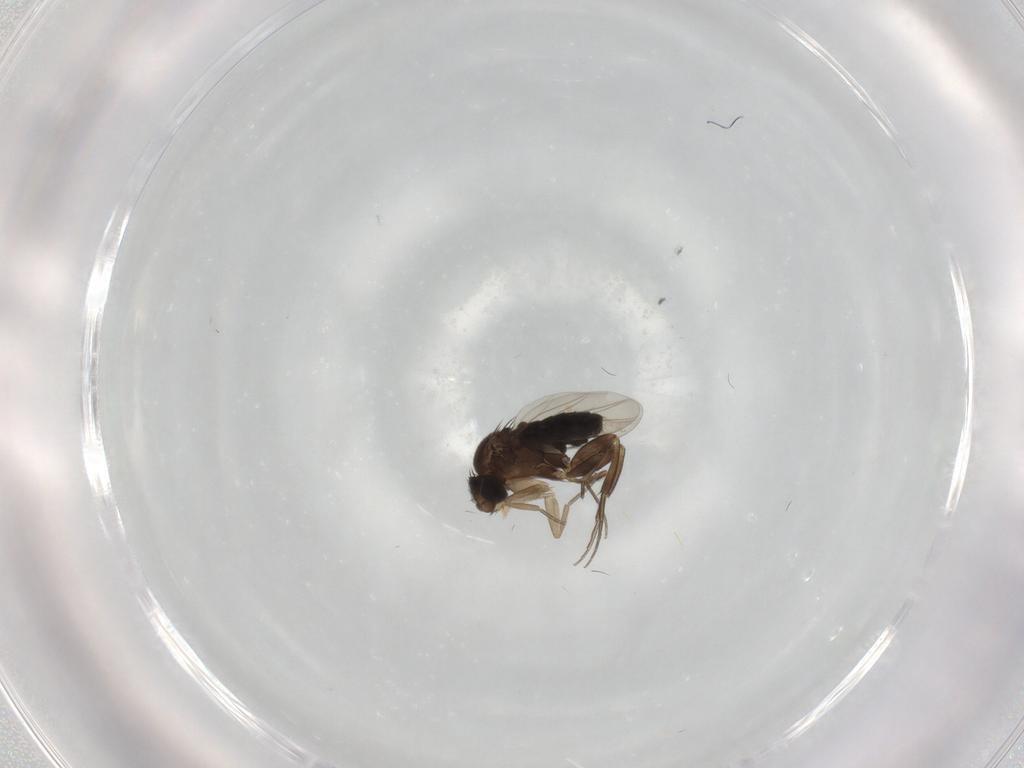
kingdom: Animalia
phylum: Arthropoda
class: Insecta
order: Diptera
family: Phoridae
